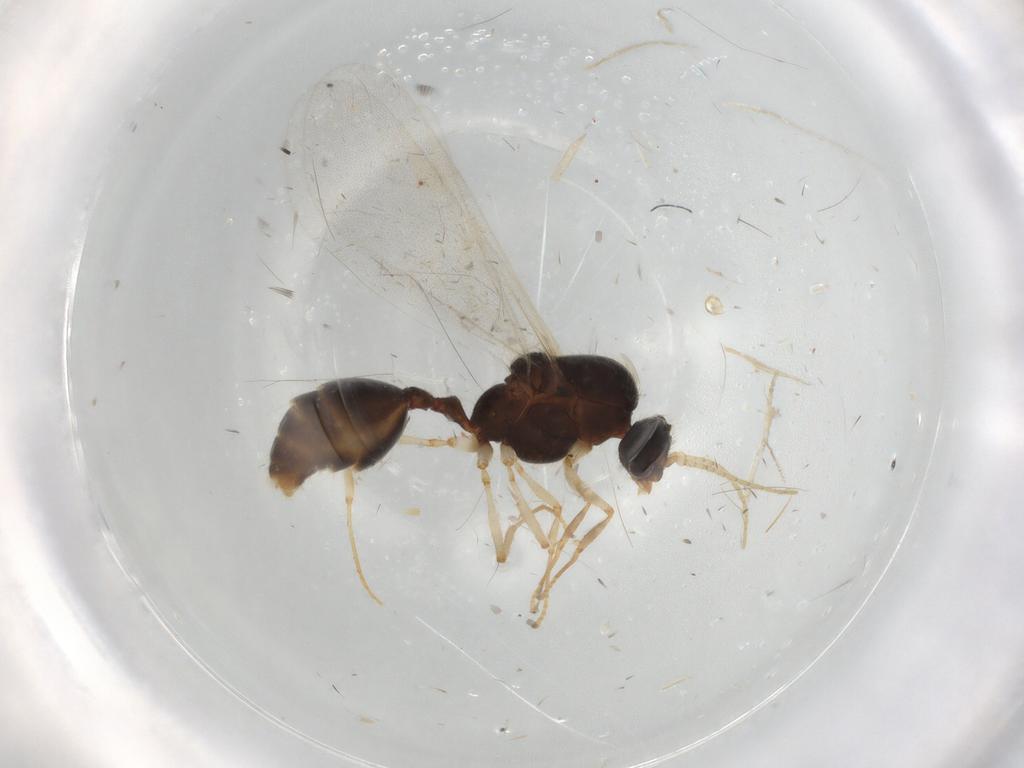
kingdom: Animalia
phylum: Arthropoda
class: Insecta
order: Hymenoptera
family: Formicidae
